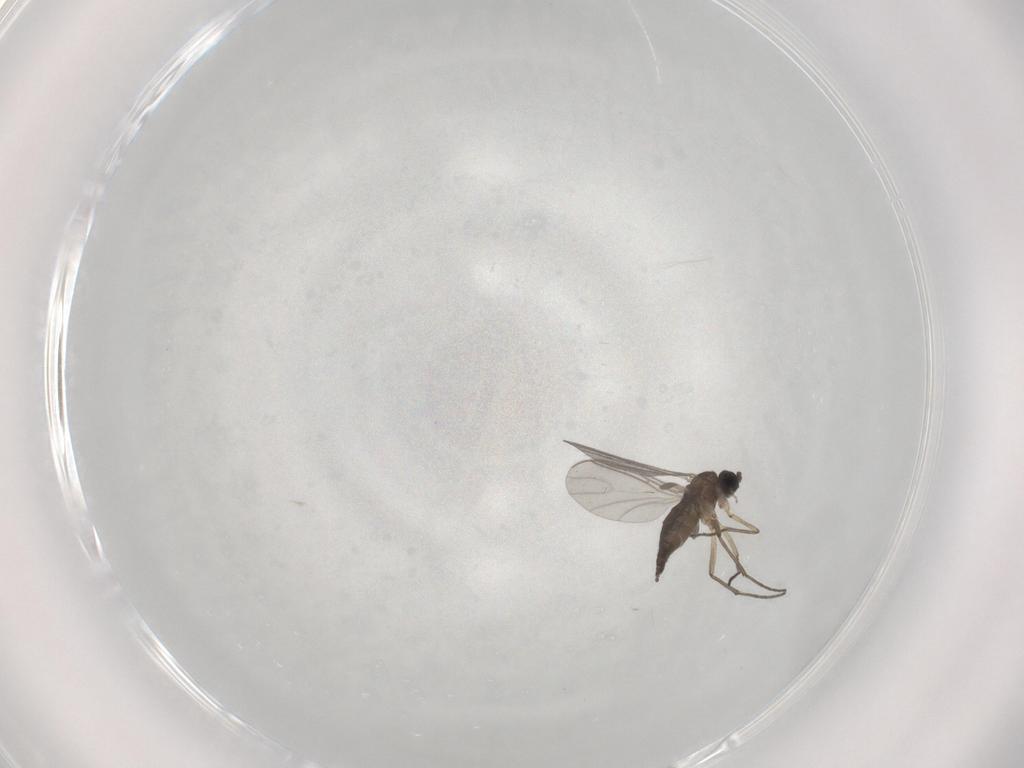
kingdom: Animalia
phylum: Arthropoda
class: Insecta
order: Diptera
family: Sciaridae
